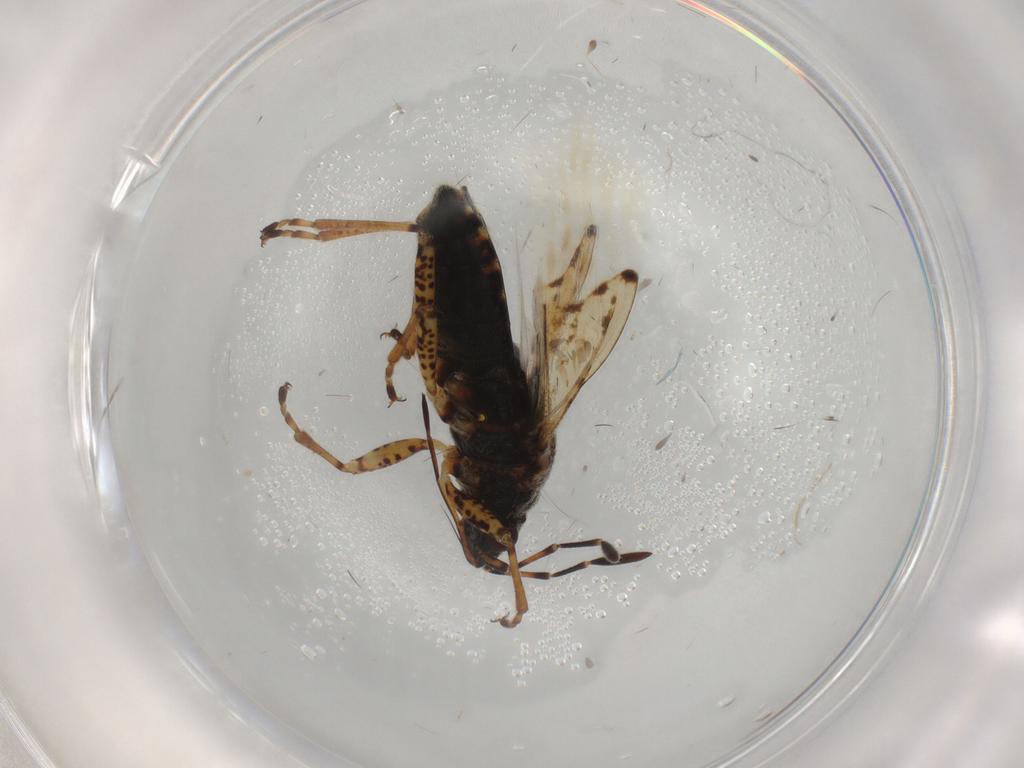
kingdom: Animalia
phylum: Arthropoda
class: Insecta
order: Hemiptera
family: Lygaeidae
